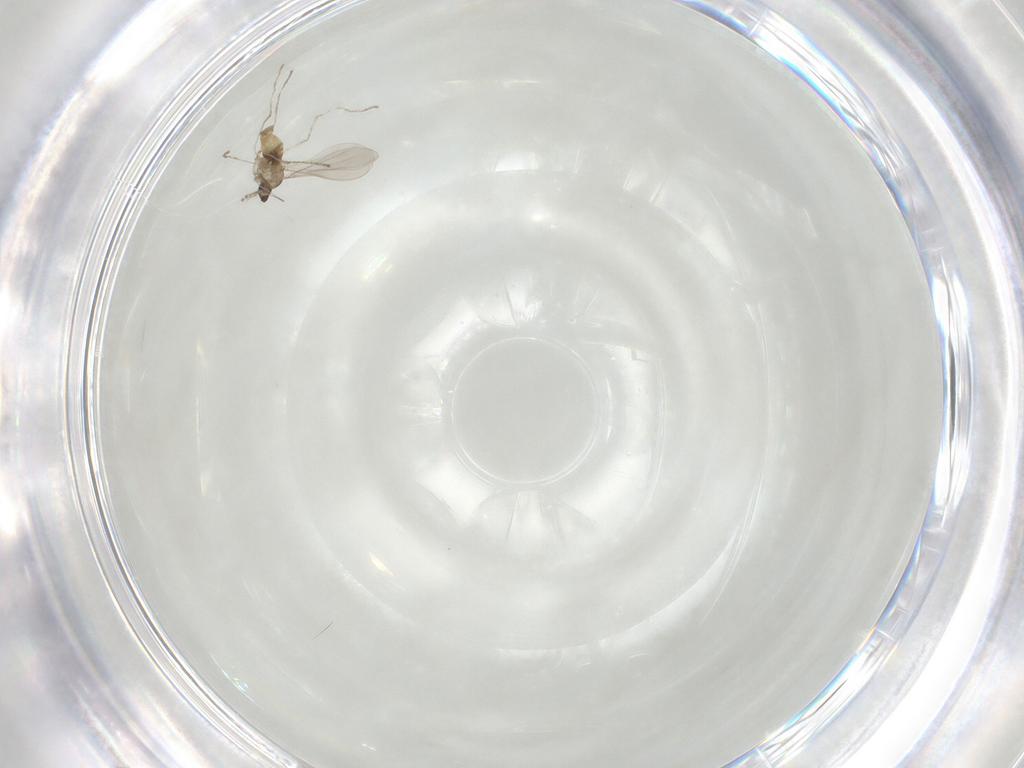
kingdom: Animalia
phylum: Arthropoda
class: Insecta
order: Diptera
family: Cecidomyiidae
